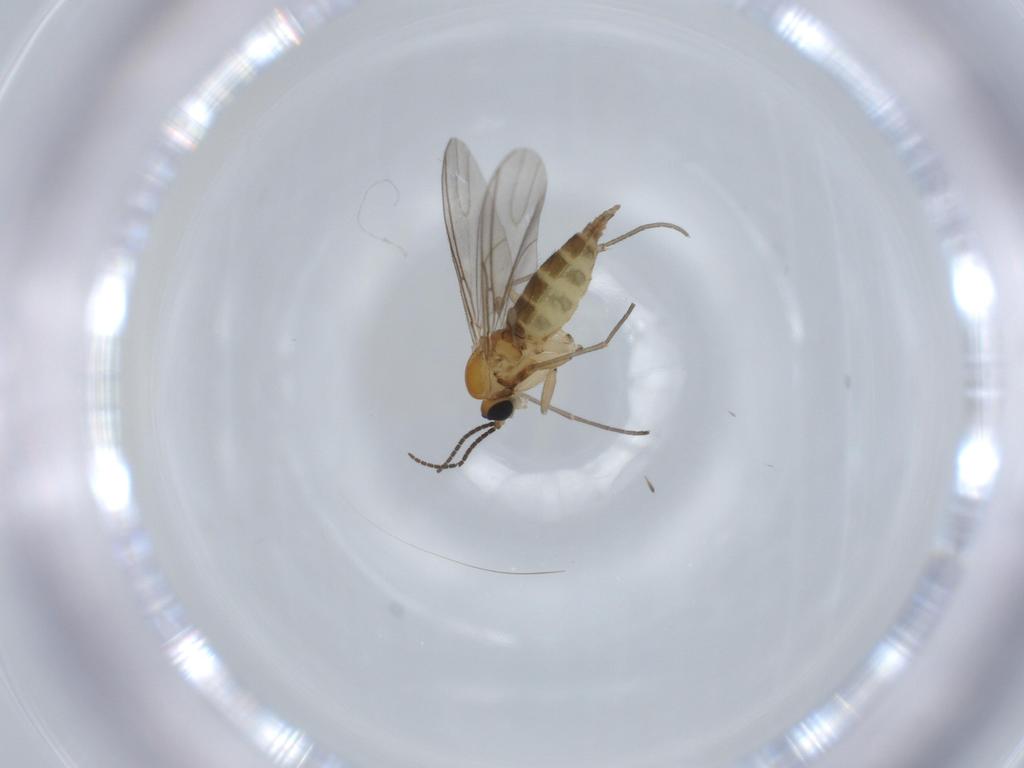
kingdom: Animalia
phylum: Arthropoda
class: Insecta
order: Diptera
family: Sciaridae
